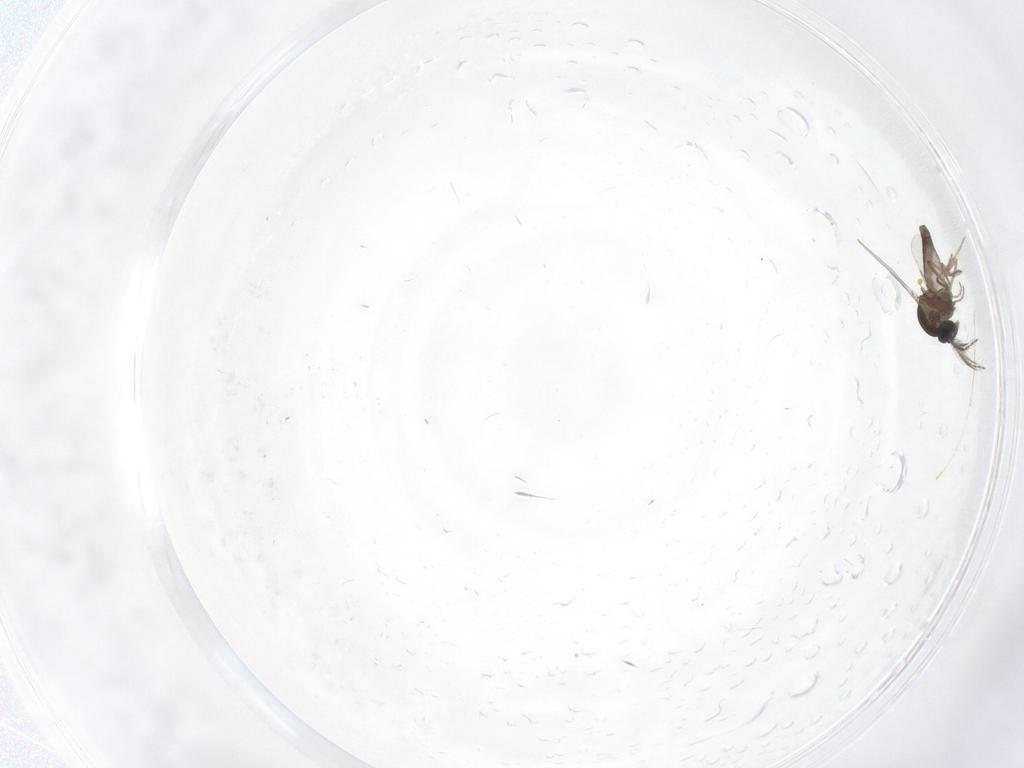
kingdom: Animalia
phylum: Arthropoda
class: Insecta
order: Diptera
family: Ceratopogonidae
